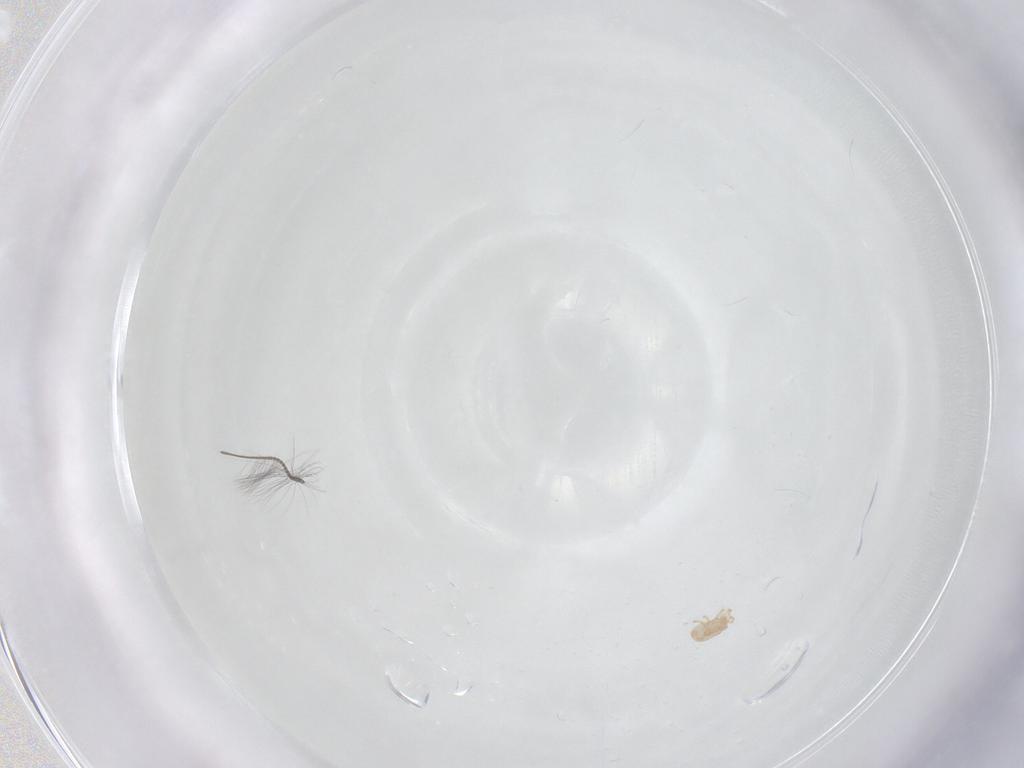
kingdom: Animalia
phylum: Arthropoda
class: Insecta
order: Diptera
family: Chironomidae
